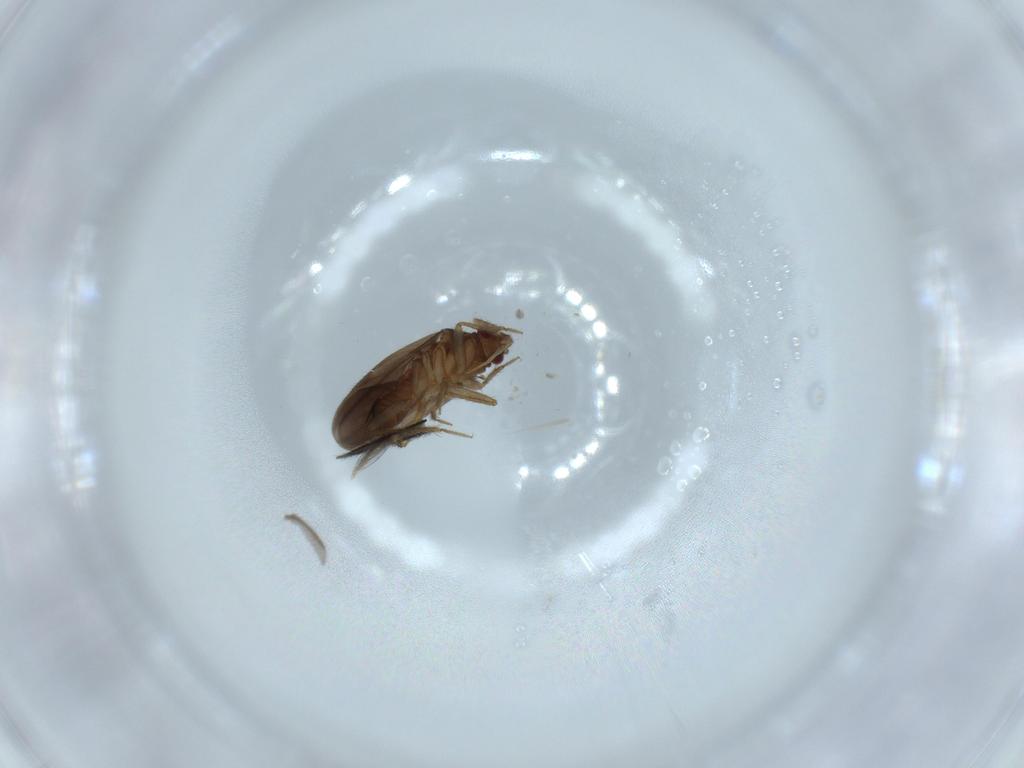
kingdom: Animalia
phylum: Arthropoda
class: Insecta
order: Hemiptera
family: Ceratocombidae
